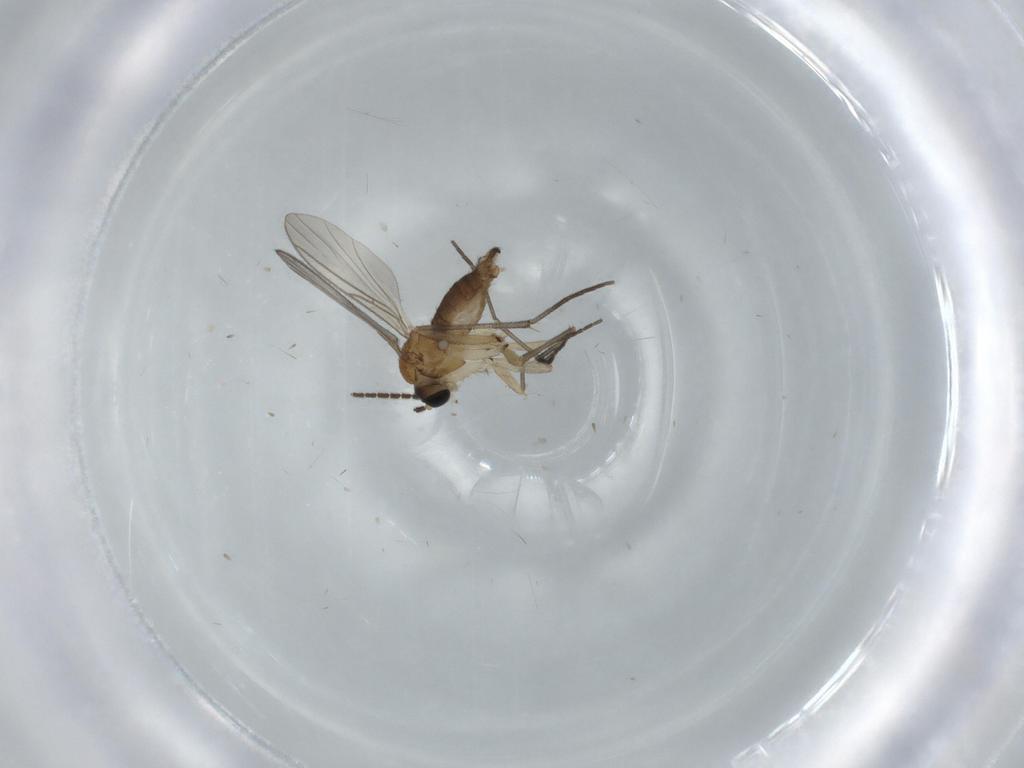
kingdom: Animalia
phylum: Arthropoda
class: Insecta
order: Diptera
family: Sciaridae
